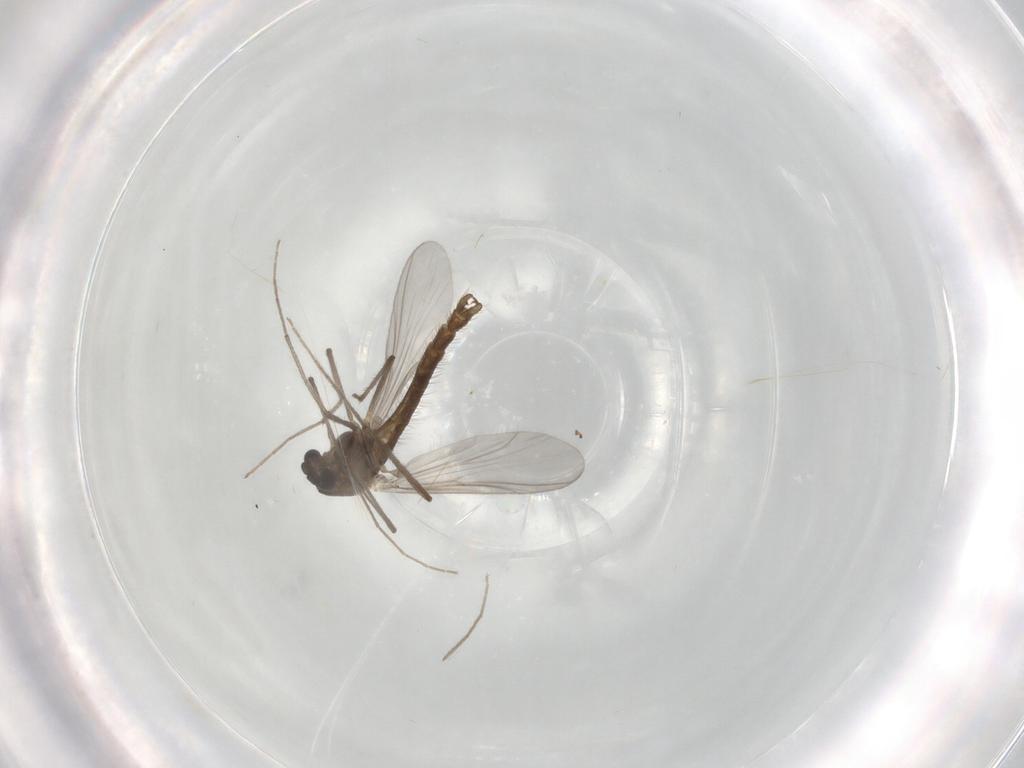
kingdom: Animalia
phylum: Arthropoda
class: Insecta
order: Diptera
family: Chironomidae
